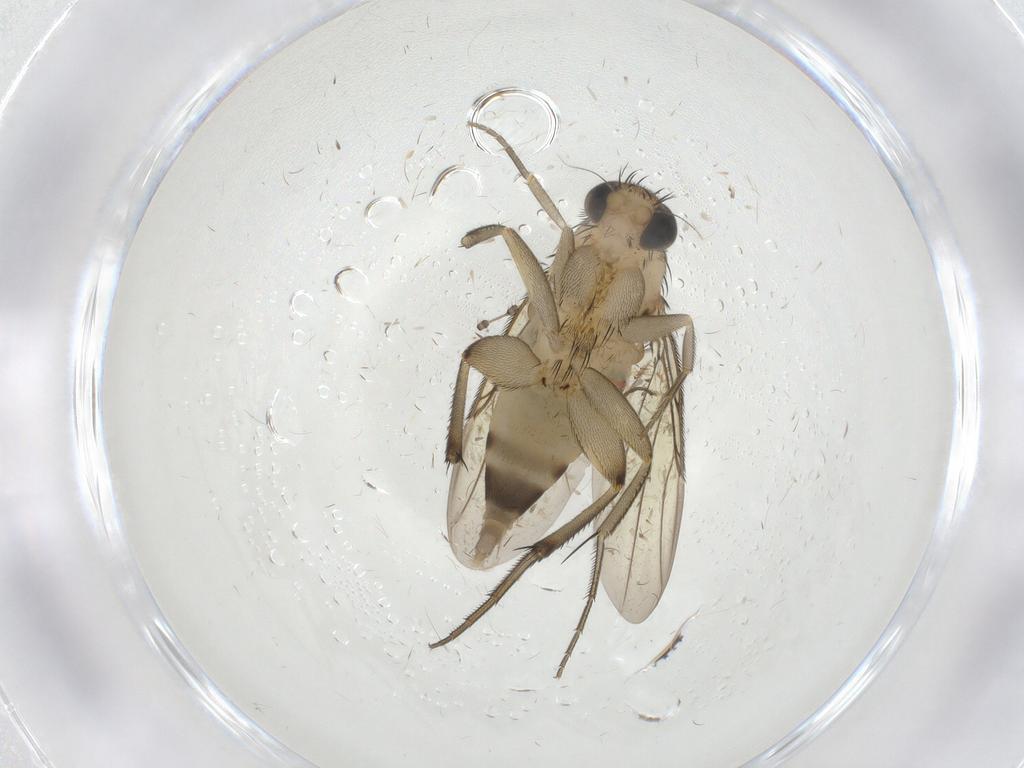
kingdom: Animalia
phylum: Arthropoda
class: Insecta
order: Diptera
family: Phoridae
